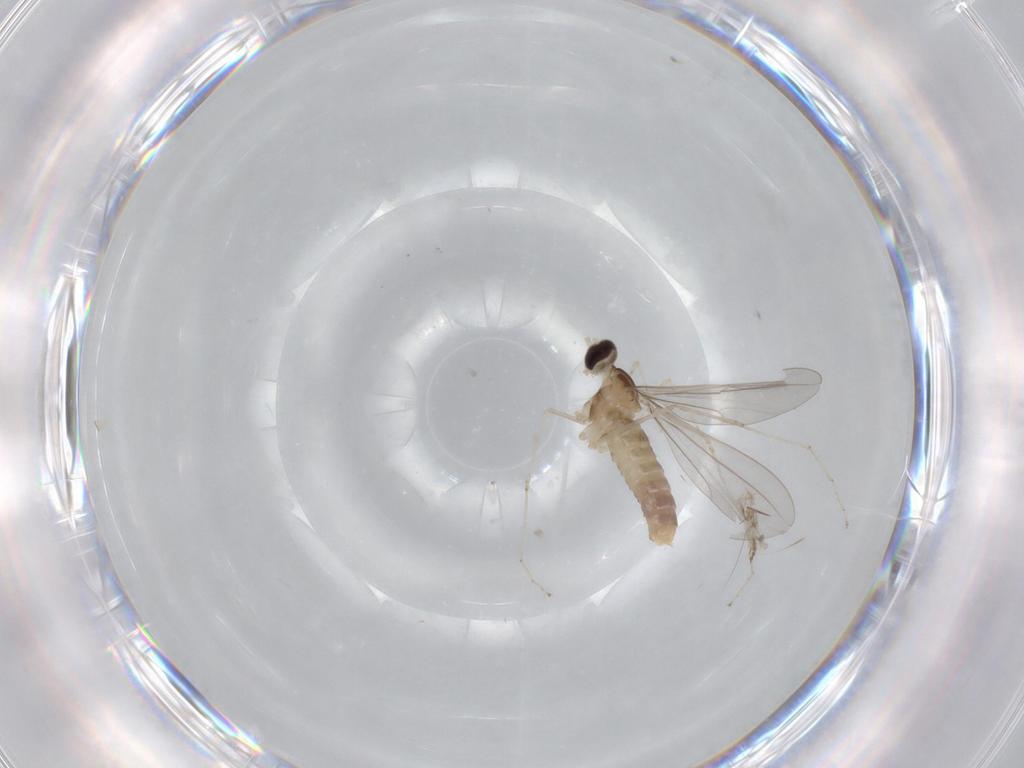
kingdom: Animalia
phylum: Arthropoda
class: Insecta
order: Diptera
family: Cecidomyiidae
